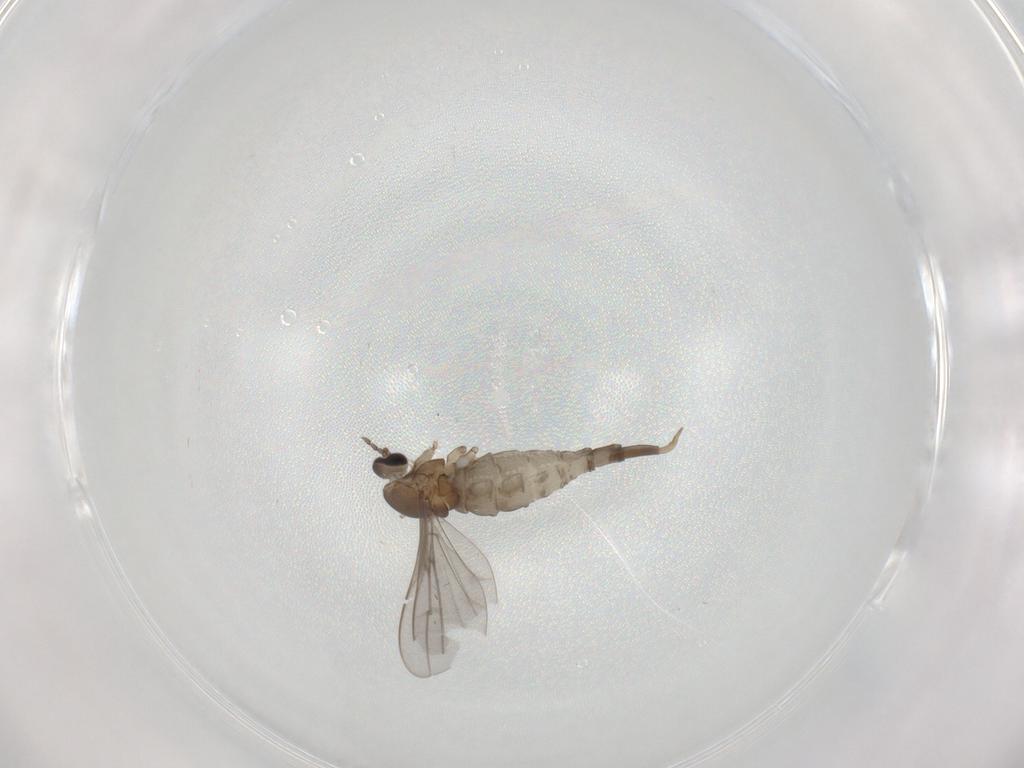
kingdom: Animalia
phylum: Arthropoda
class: Insecta
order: Diptera
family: Cecidomyiidae
